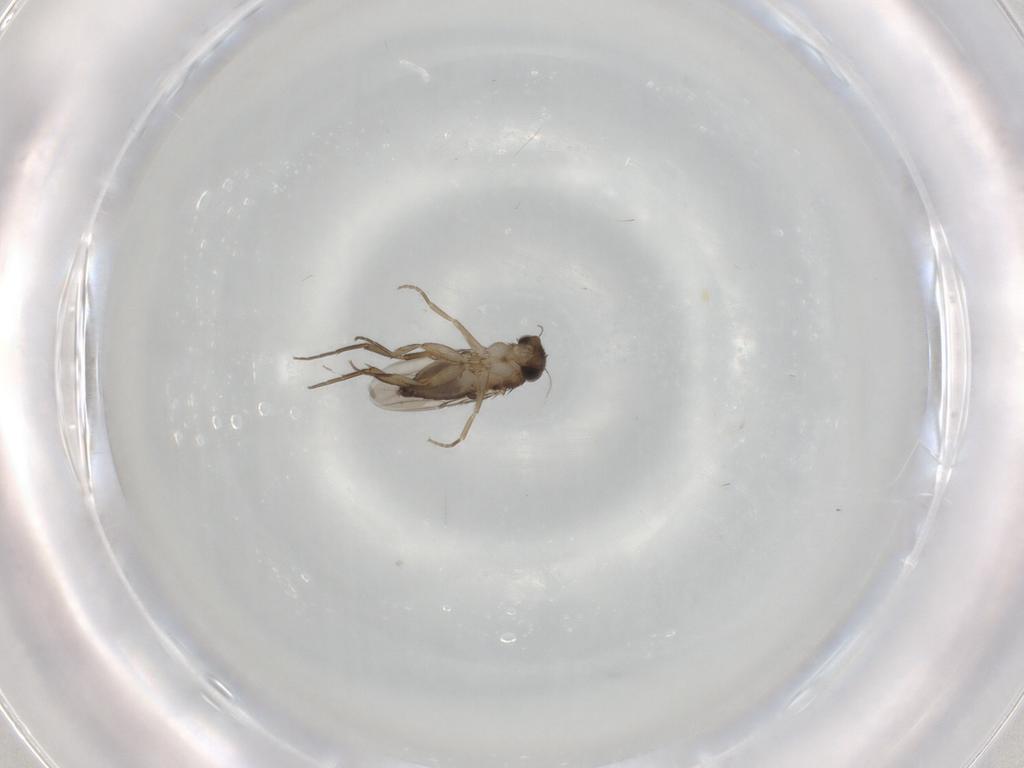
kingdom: Animalia
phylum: Arthropoda
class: Insecta
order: Diptera
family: Phoridae
